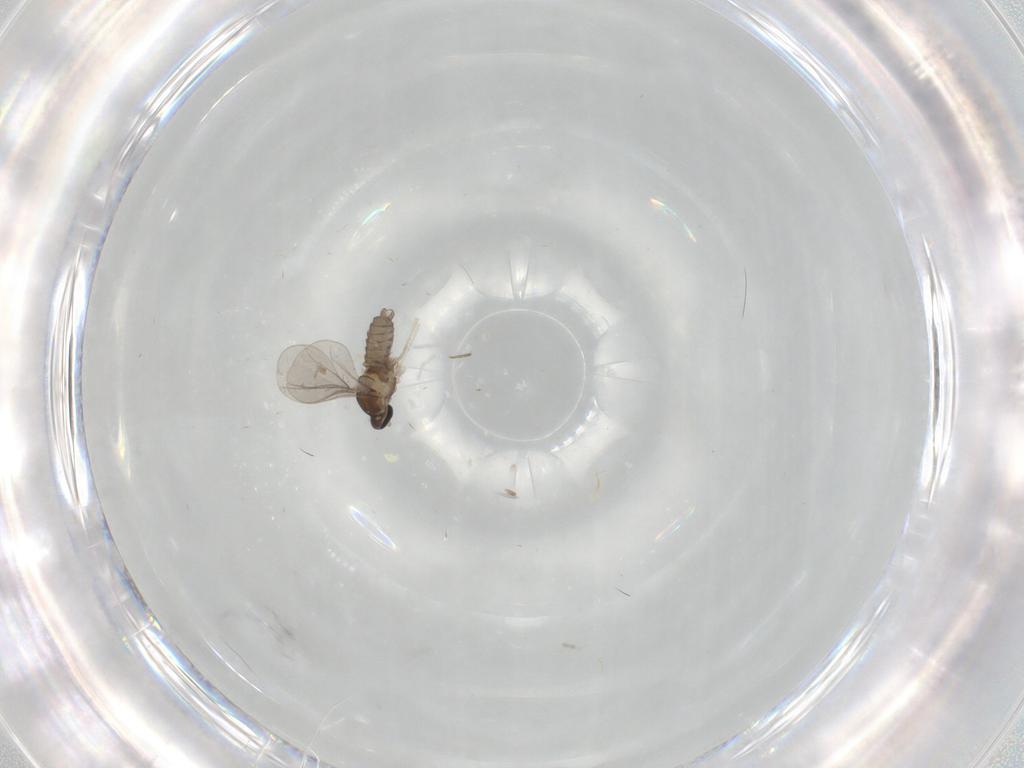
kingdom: Animalia
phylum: Arthropoda
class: Insecta
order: Diptera
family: Cecidomyiidae
